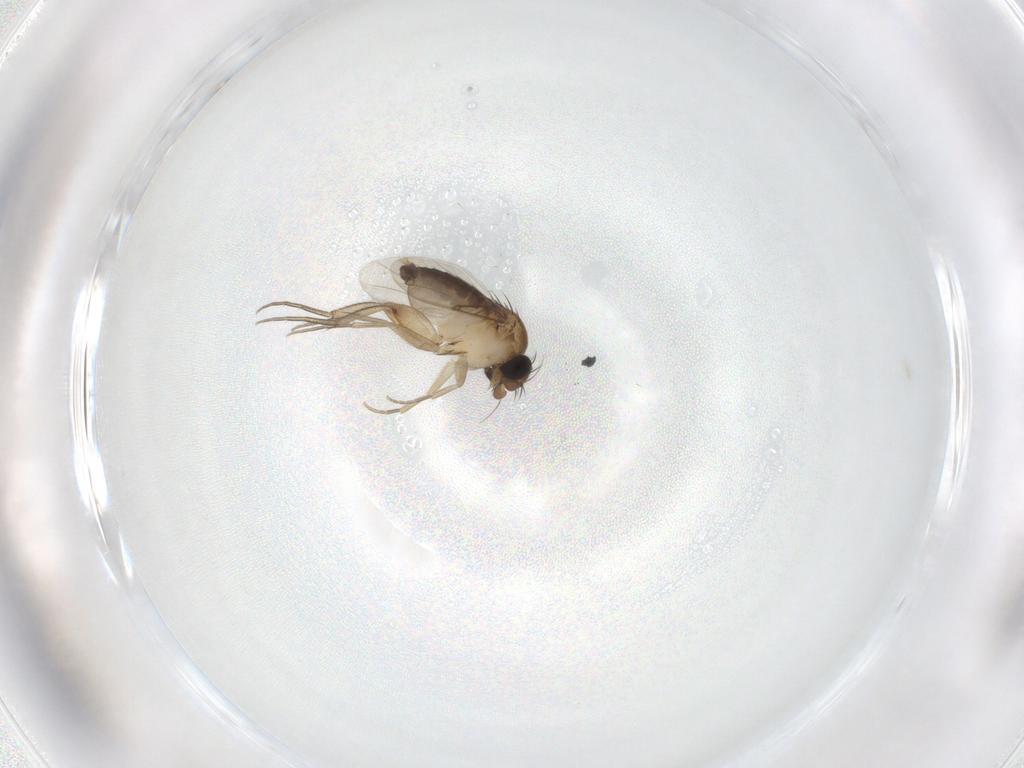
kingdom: Animalia
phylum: Arthropoda
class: Insecta
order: Diptera
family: Phoridae
